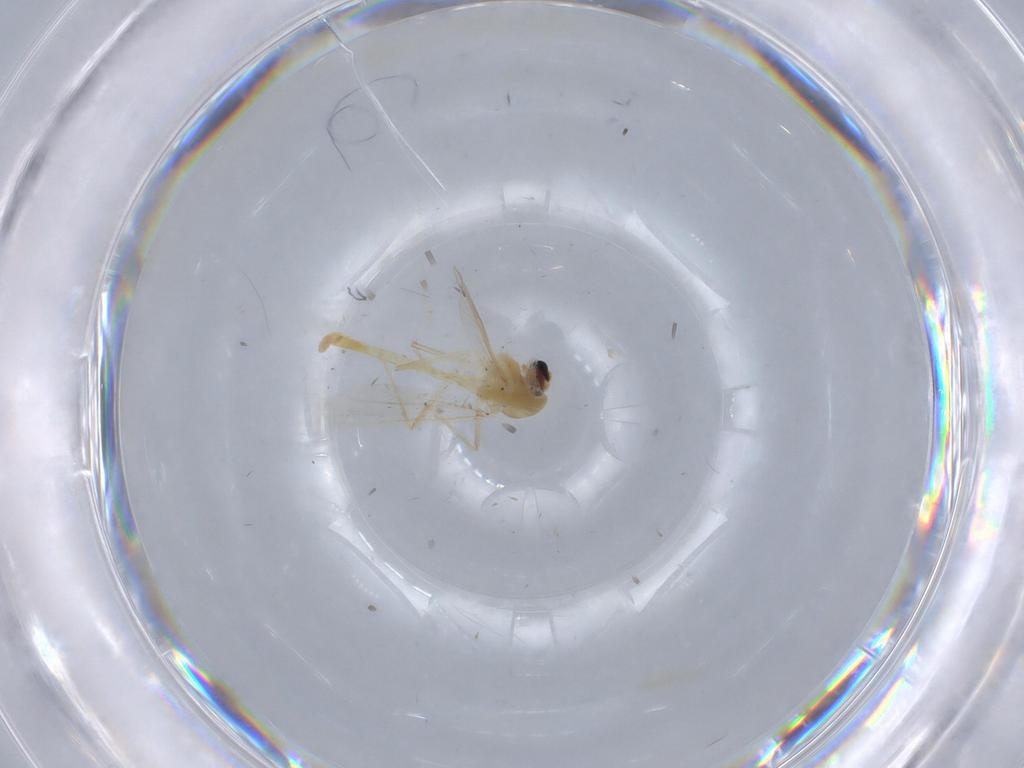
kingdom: Animalia
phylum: Arthropoda
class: Insecta
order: Diptera
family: Chironomidae
